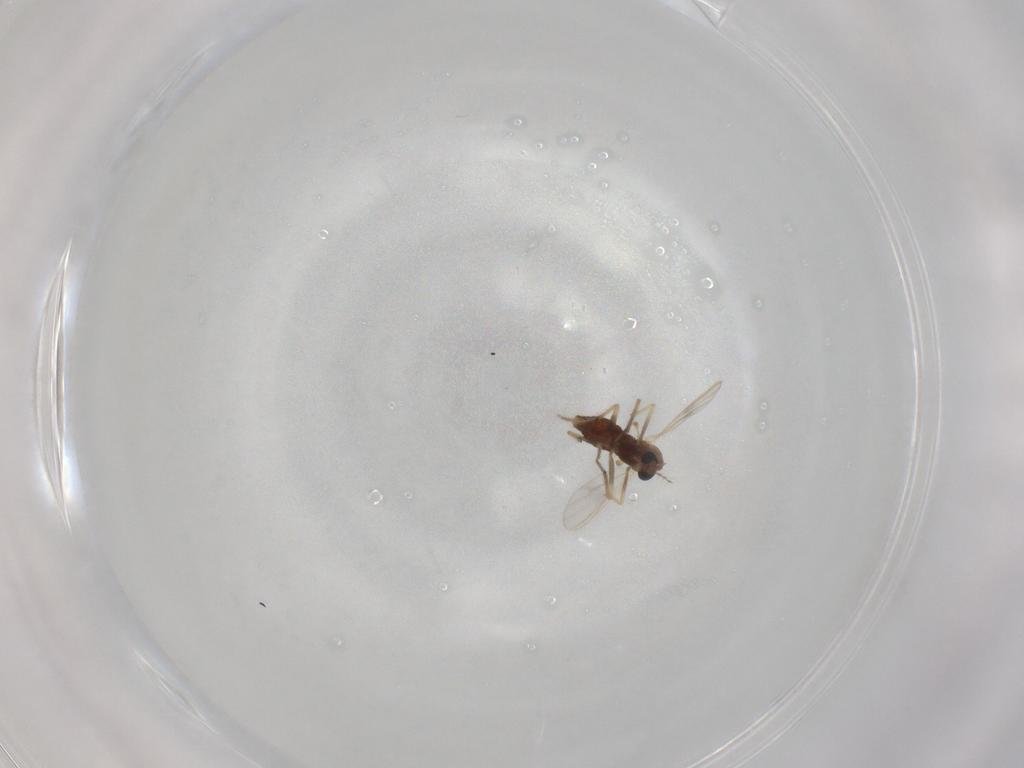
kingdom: Animalia
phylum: Arthropoda
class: Insecta
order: Diptera
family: Chironomidae
